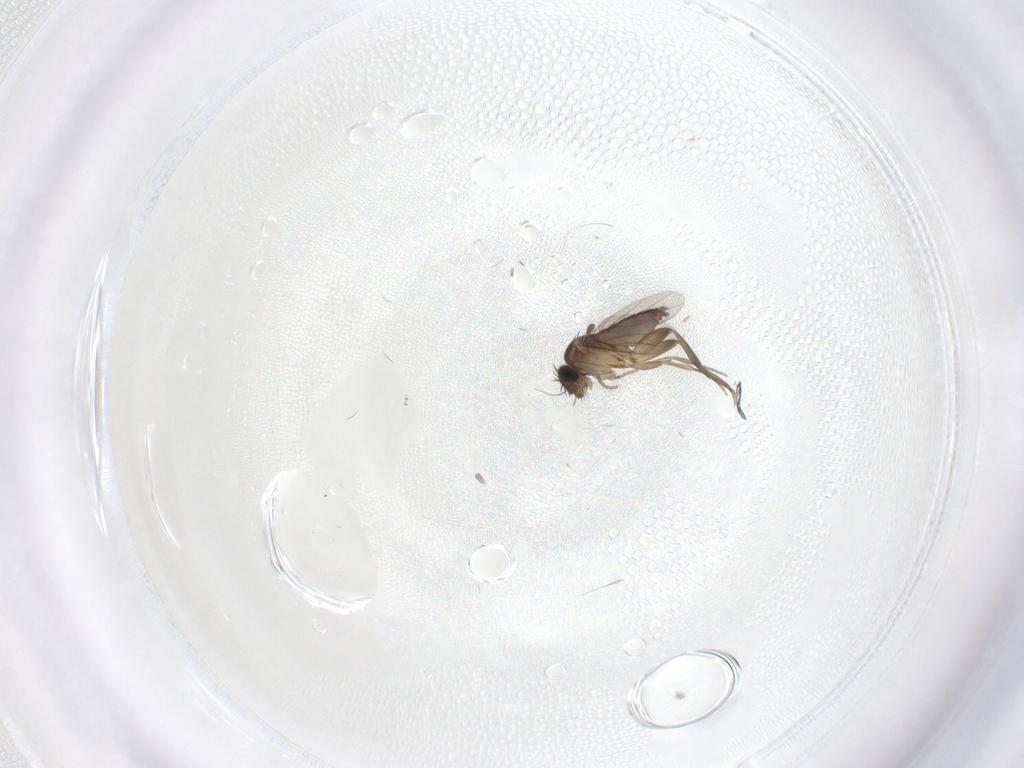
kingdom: Animalia
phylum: Arthropoda
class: Insecta
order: Diptera
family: Phoridae
